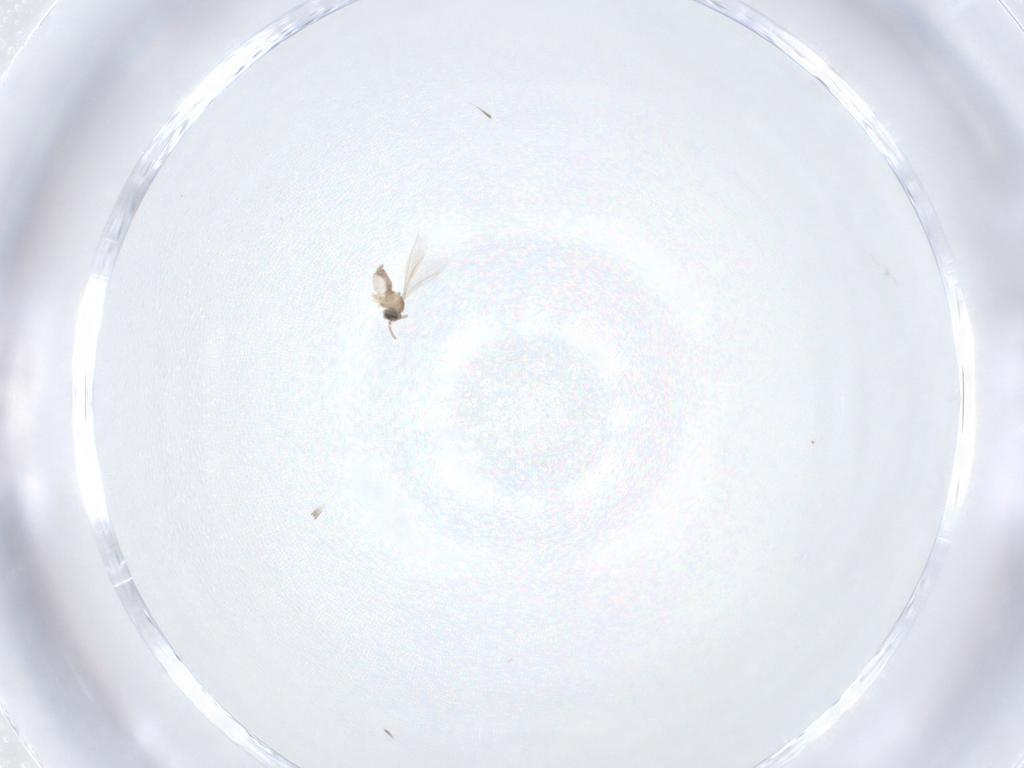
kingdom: Animalia
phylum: Arthropoda
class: Insecta
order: Diptera
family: Cecidomyiidae
